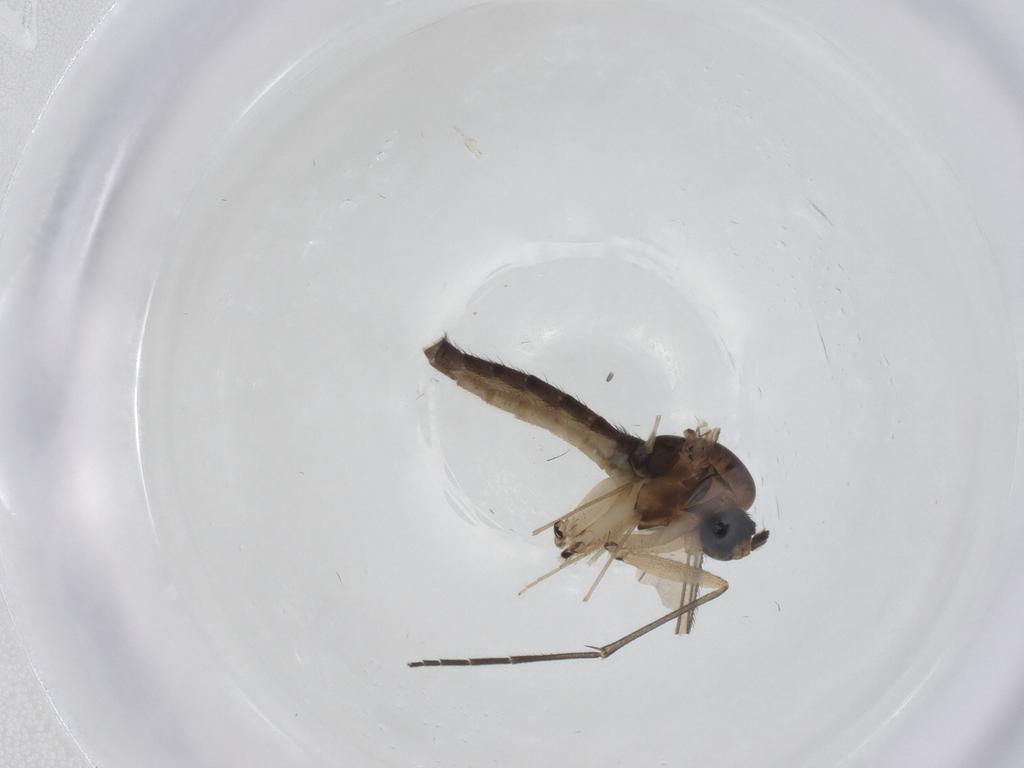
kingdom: Animalia
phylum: Arthropoda
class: Insecta
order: Diptera
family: Sciaridae
